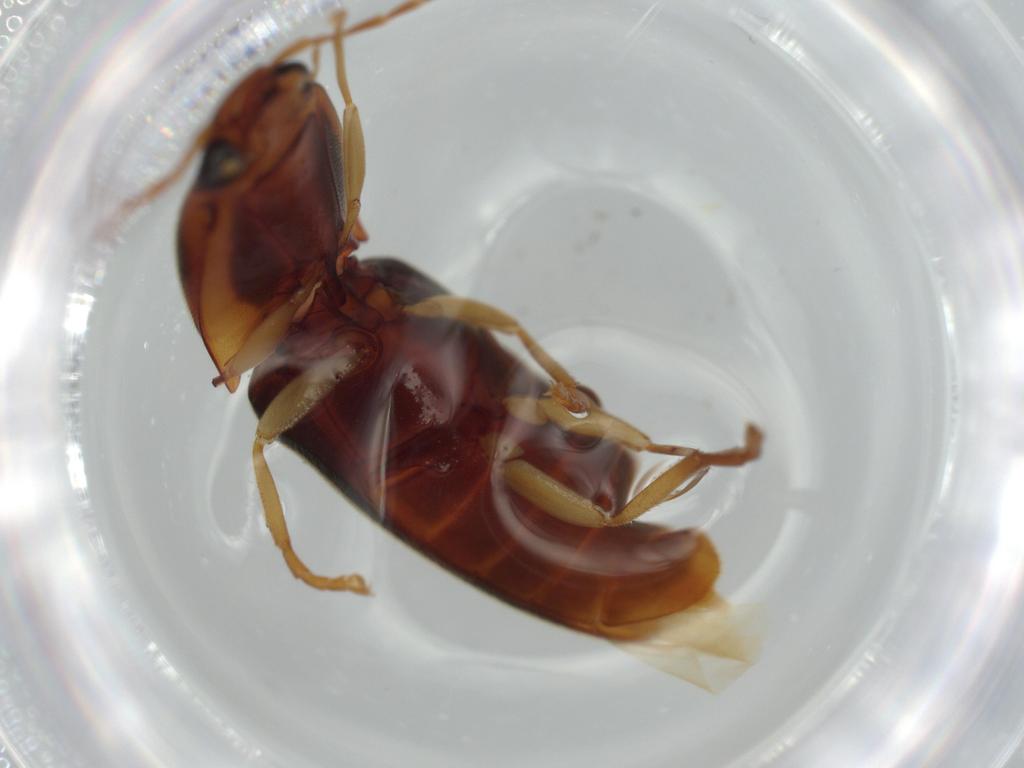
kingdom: Animalia
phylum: Arthropoda
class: Insecta
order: Coleoptera
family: Elateridae
